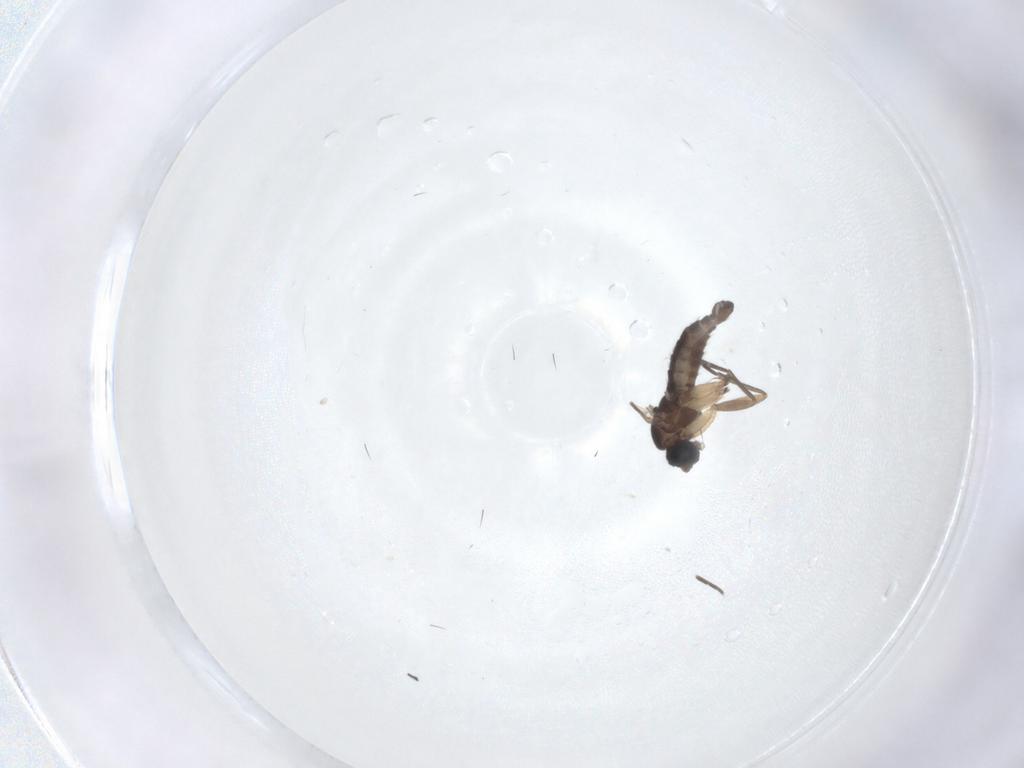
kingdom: Animalia
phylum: Arthropoda
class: Insecta
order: Diptera
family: Sciaridae
